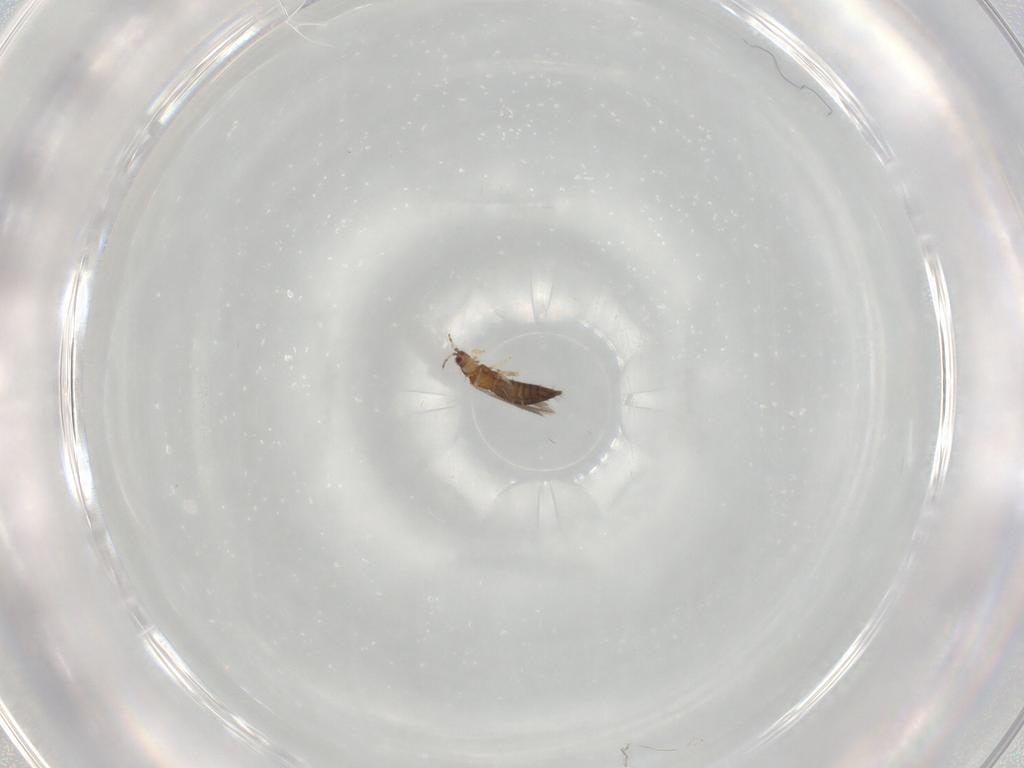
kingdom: Animalia
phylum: Arthropoda
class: Insecta
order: Thysanoptera
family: Thripidae
